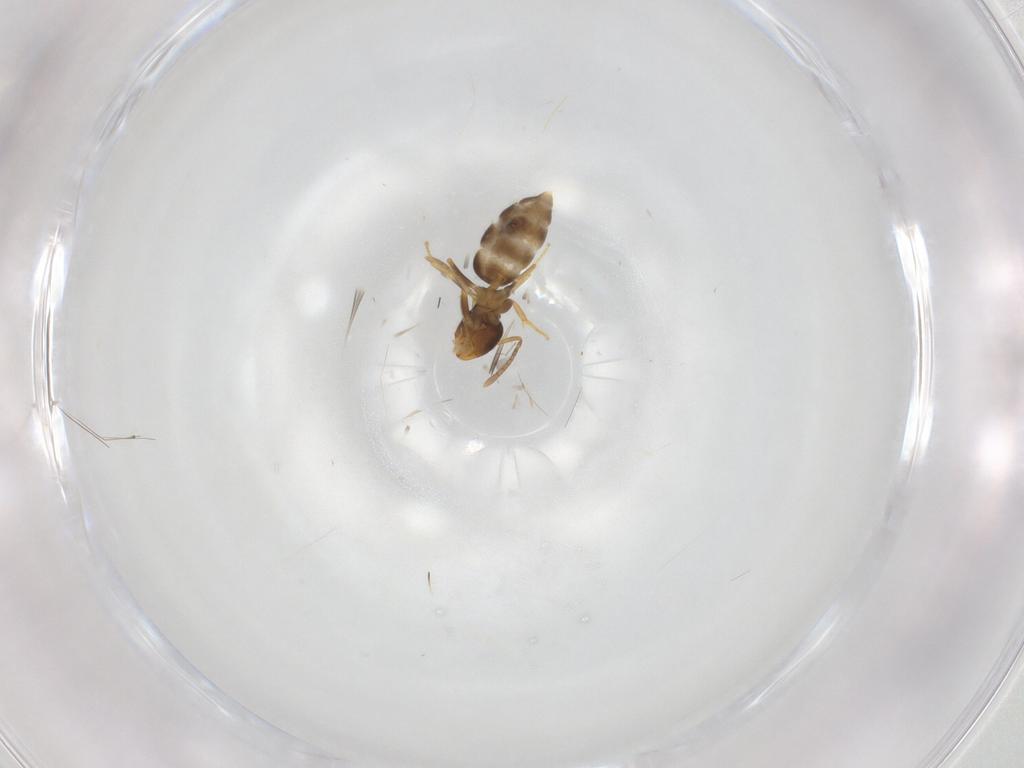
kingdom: Animalia
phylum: Arthropoda
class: Insecta
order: Hymenoptera
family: Formicidae
